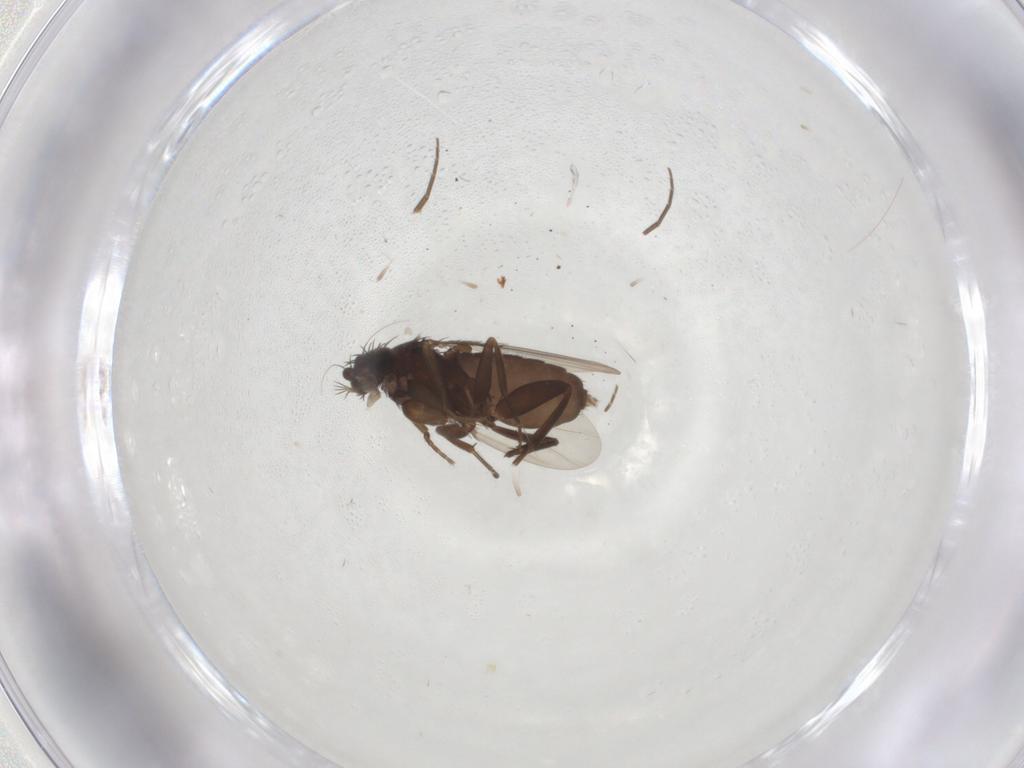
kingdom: Animalia
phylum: Arthropoda
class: Insecta
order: Diptera
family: Phoridae
